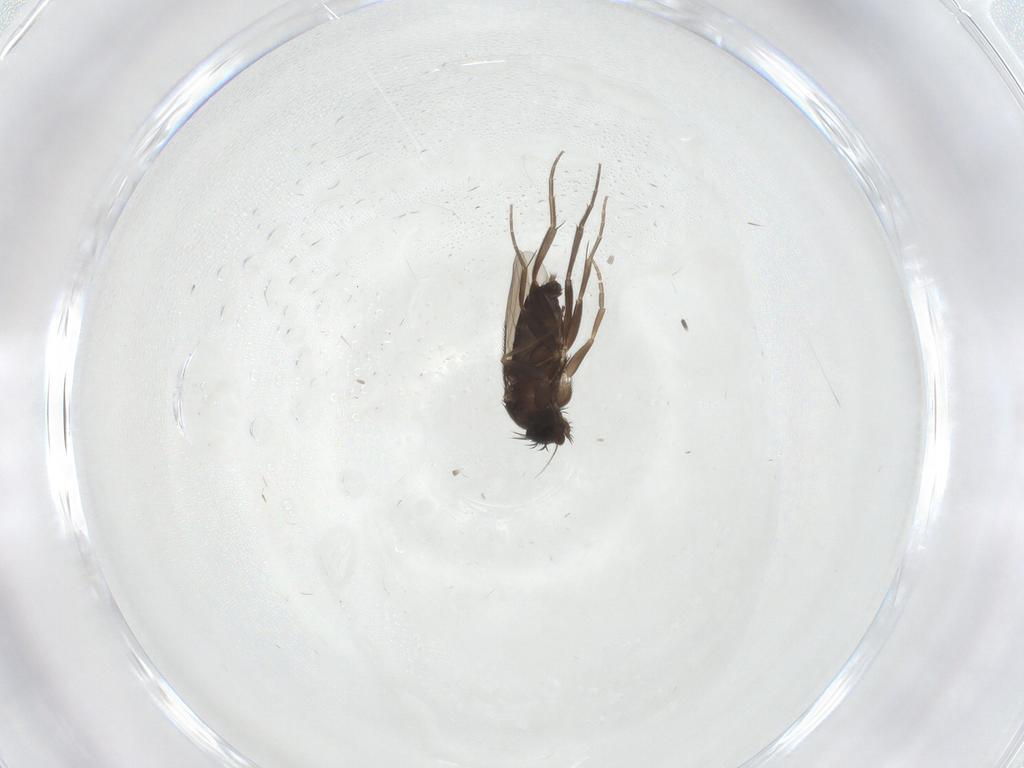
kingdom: Animalia
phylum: Arthropoda
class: Insecta
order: Diptera
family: Cecidomyiidae
